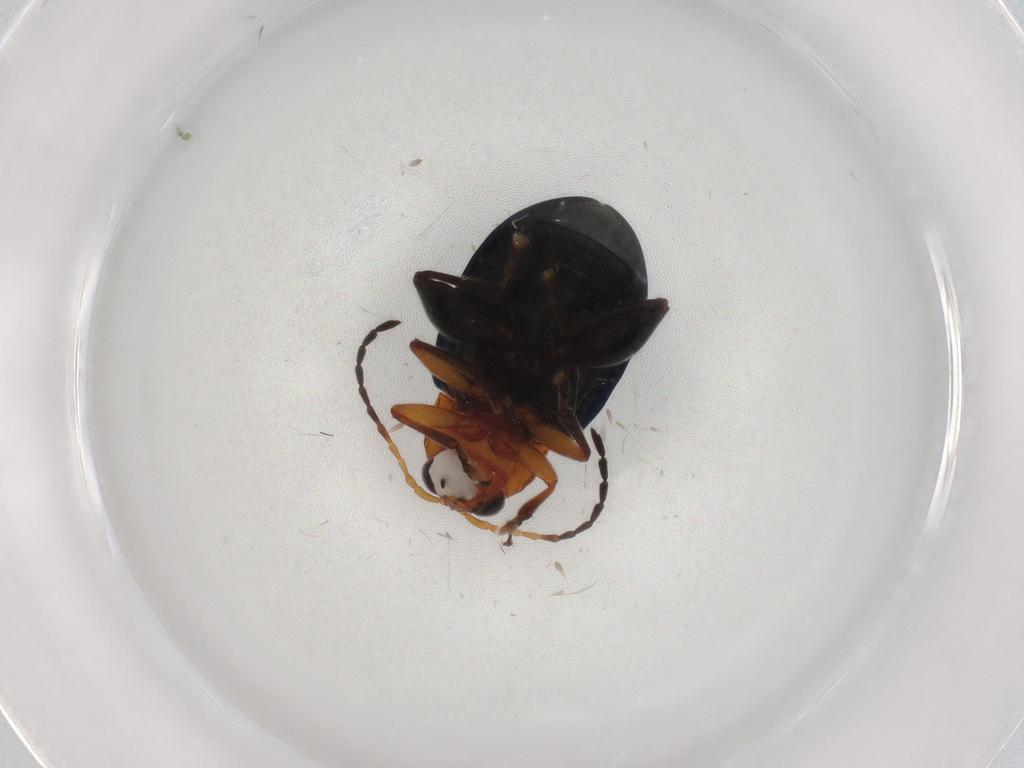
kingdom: Animalia
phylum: Arthropoda
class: Insecta
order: Coleoptera
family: Chrysomelidae
